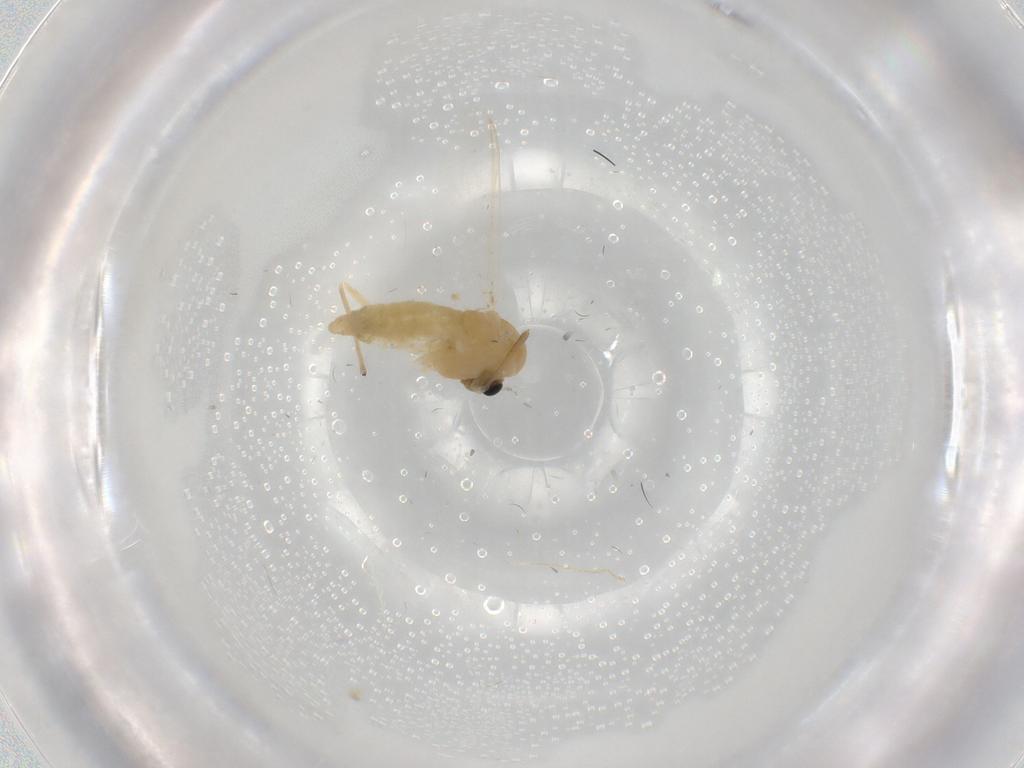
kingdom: Animalia
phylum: Arthropoda
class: Insecta
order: Diptera
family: Chironomidae
